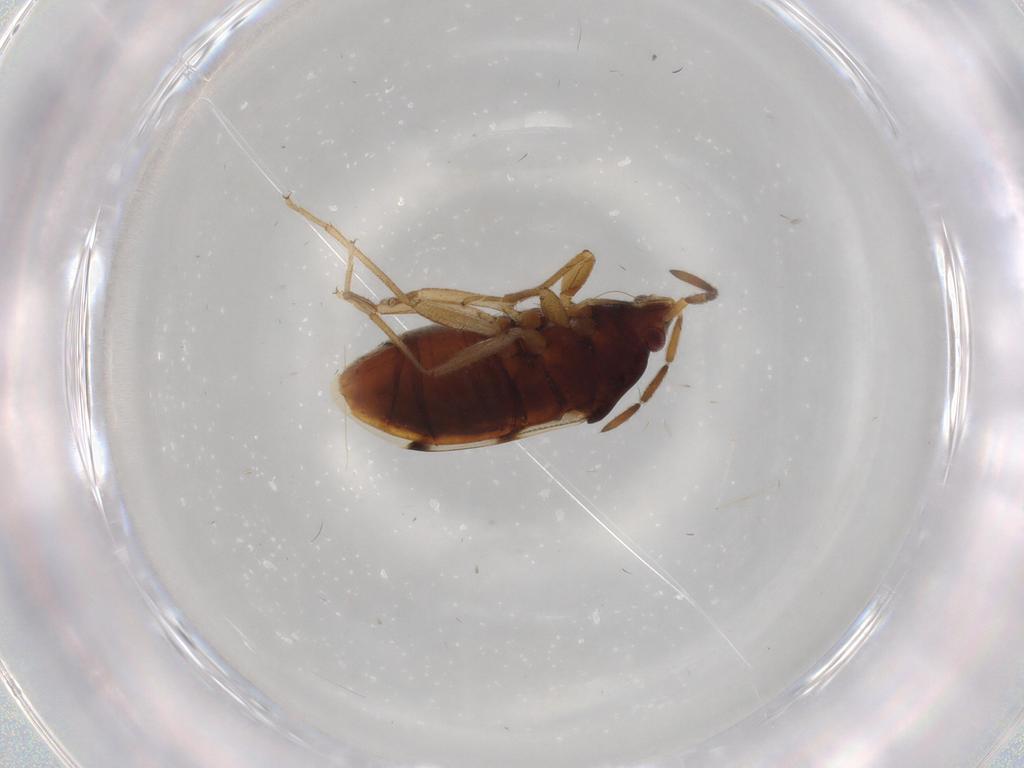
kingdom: Animalia
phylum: Arthropoda
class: Insecta
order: Hemiptera
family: Rhyparochromidae
